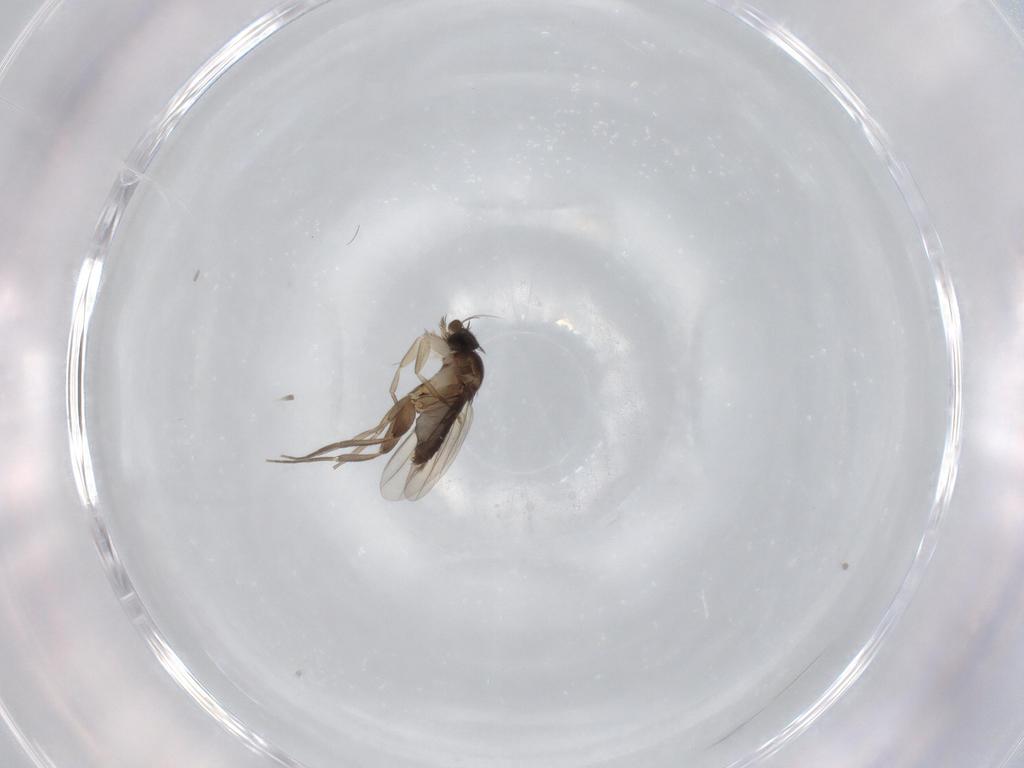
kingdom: Animalia
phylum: Arthropoda
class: Insecta
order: Diptera
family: Phoridae
